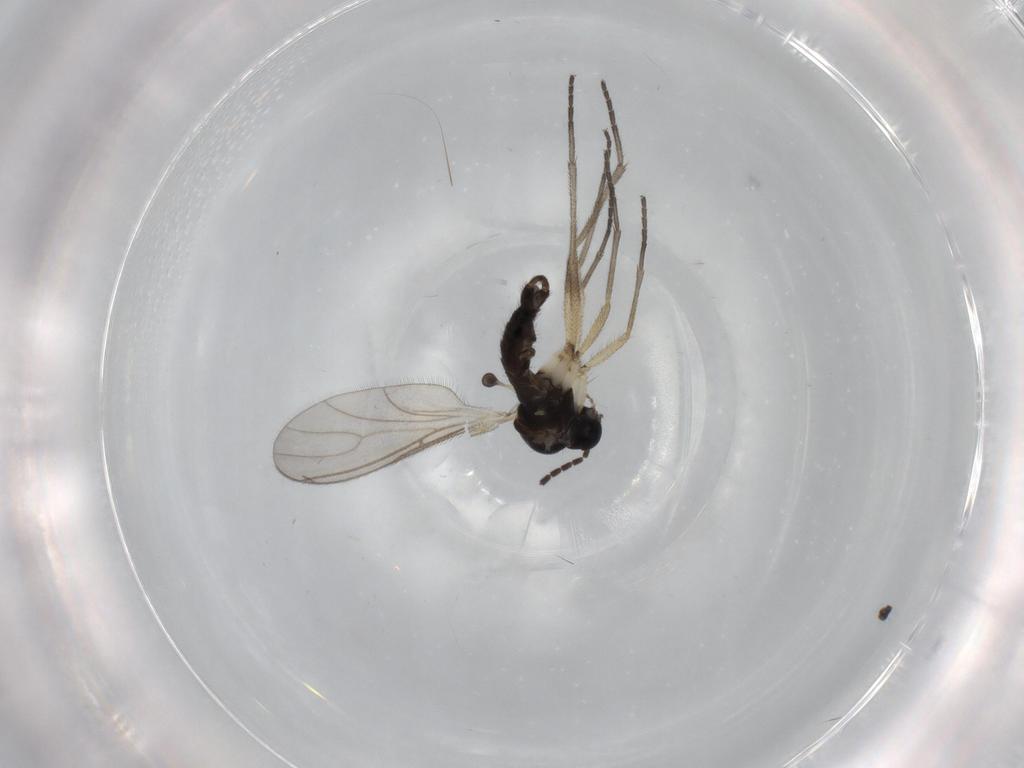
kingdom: Animalia
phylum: Arthropoda
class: Insecta
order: Diptera
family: Sciaridae
